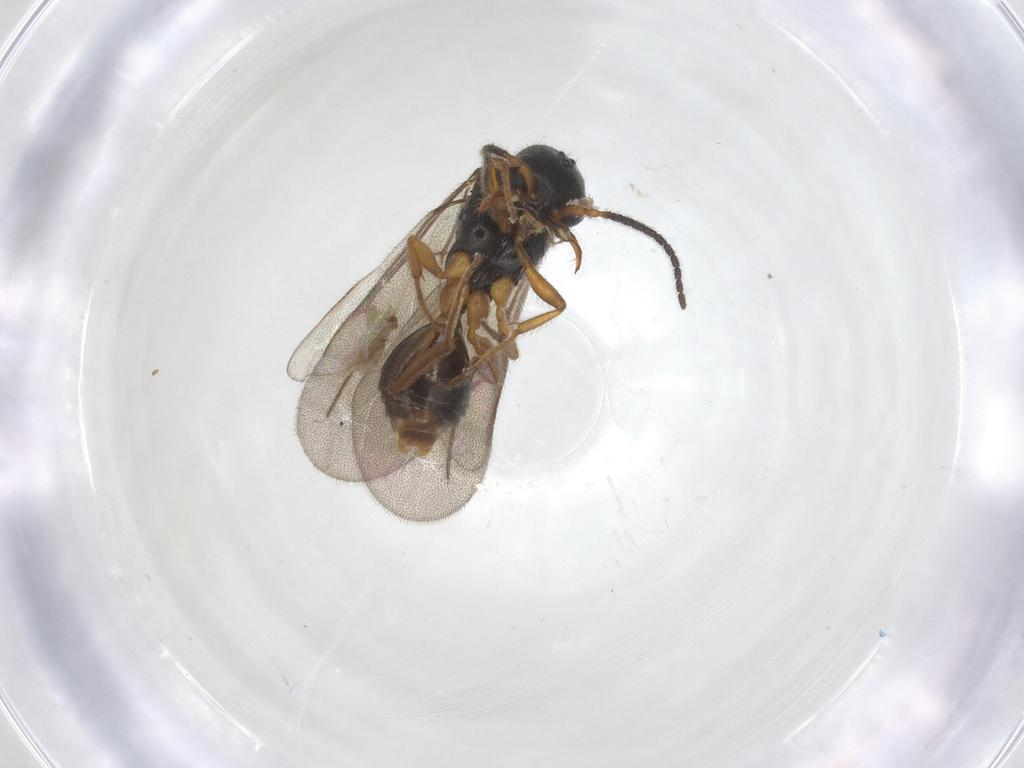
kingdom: Animalia
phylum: Arthropoda
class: Insecta
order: Hymenoptera
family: Bethylidae
